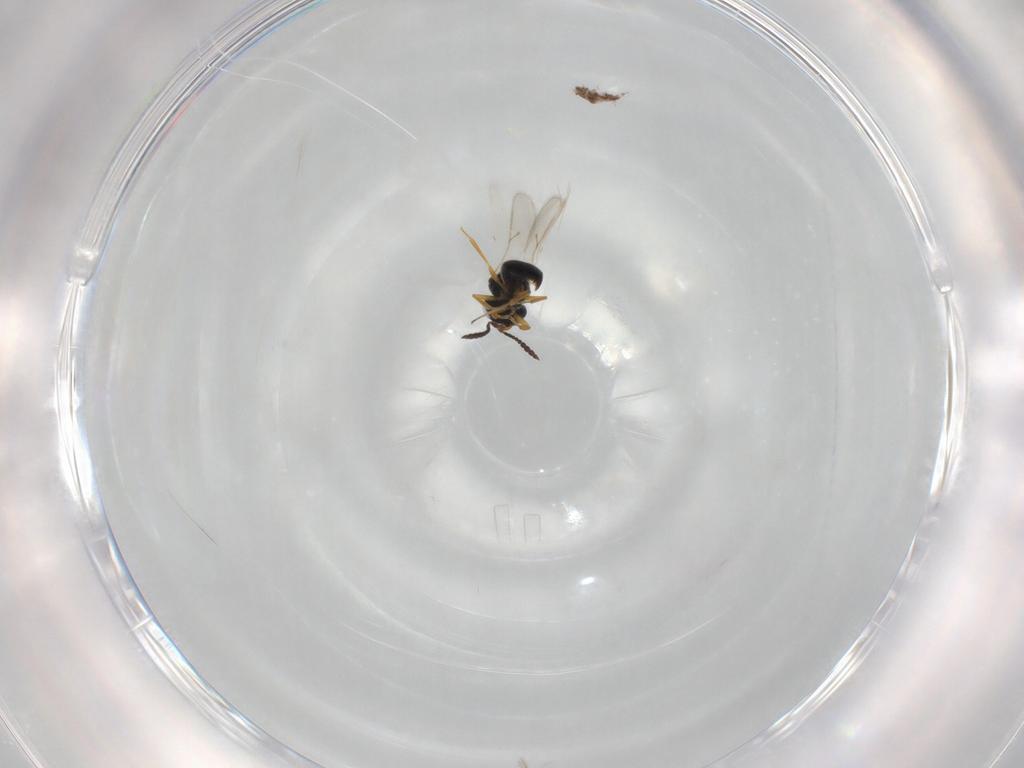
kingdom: Animalia
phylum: Arthropoda
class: Insecta
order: Hymenoptera
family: Scelionidae
